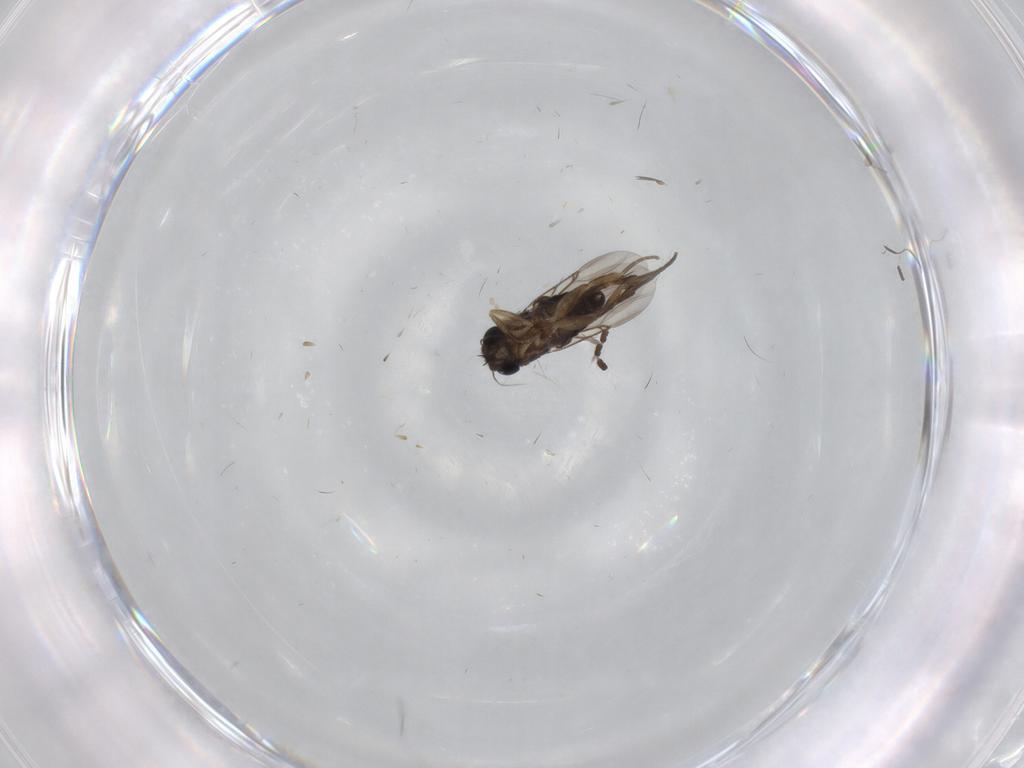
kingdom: Animalia
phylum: Arthropoda
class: Insecta
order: Diptera
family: Phoridae
